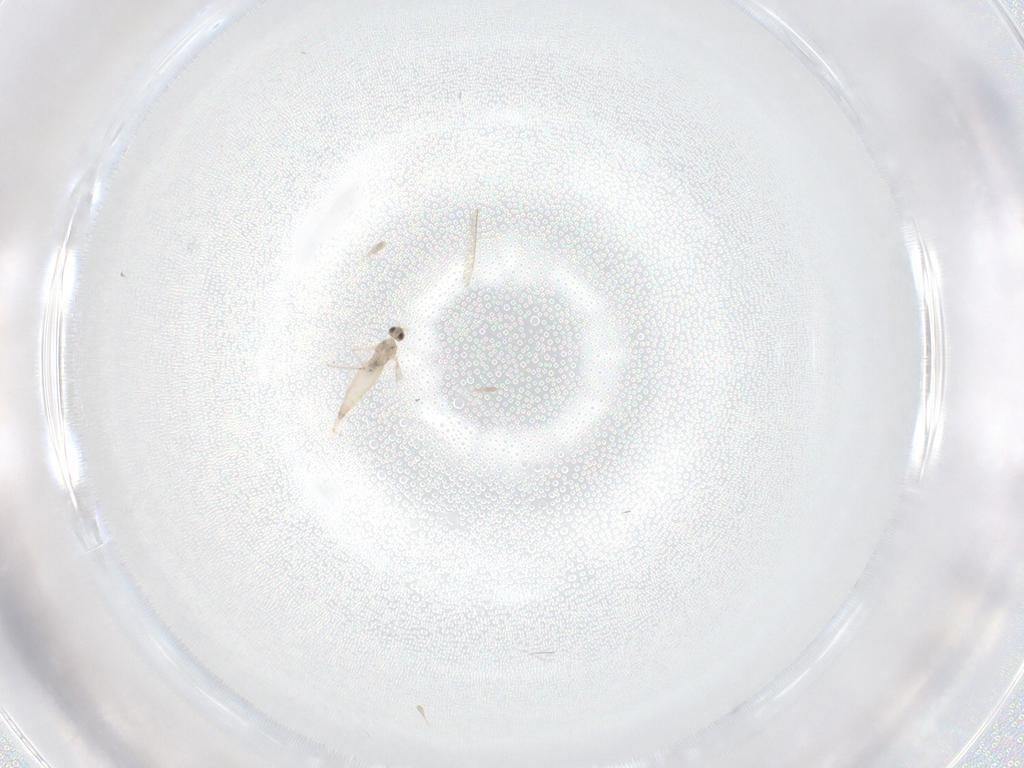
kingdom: Animalia
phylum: Arthropoda
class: Insecta
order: Diptera
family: Cecidomyiidae
